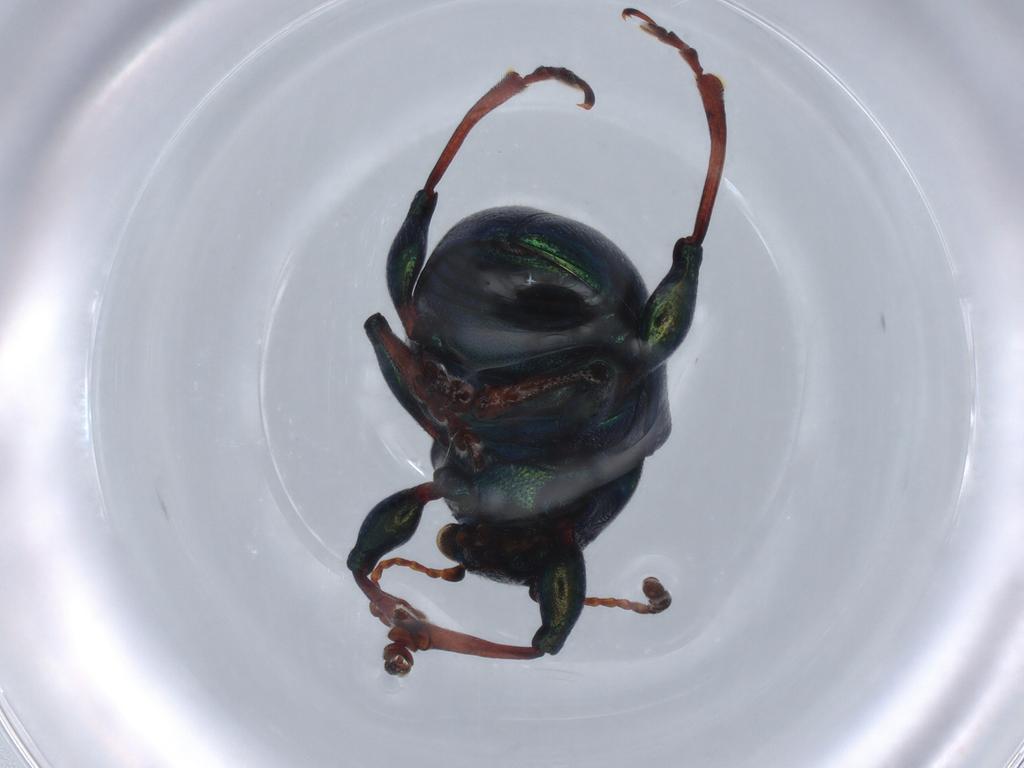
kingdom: Animalia
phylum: Arthropoda
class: Insecta
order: Coleoptera
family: Chrysomelidae
